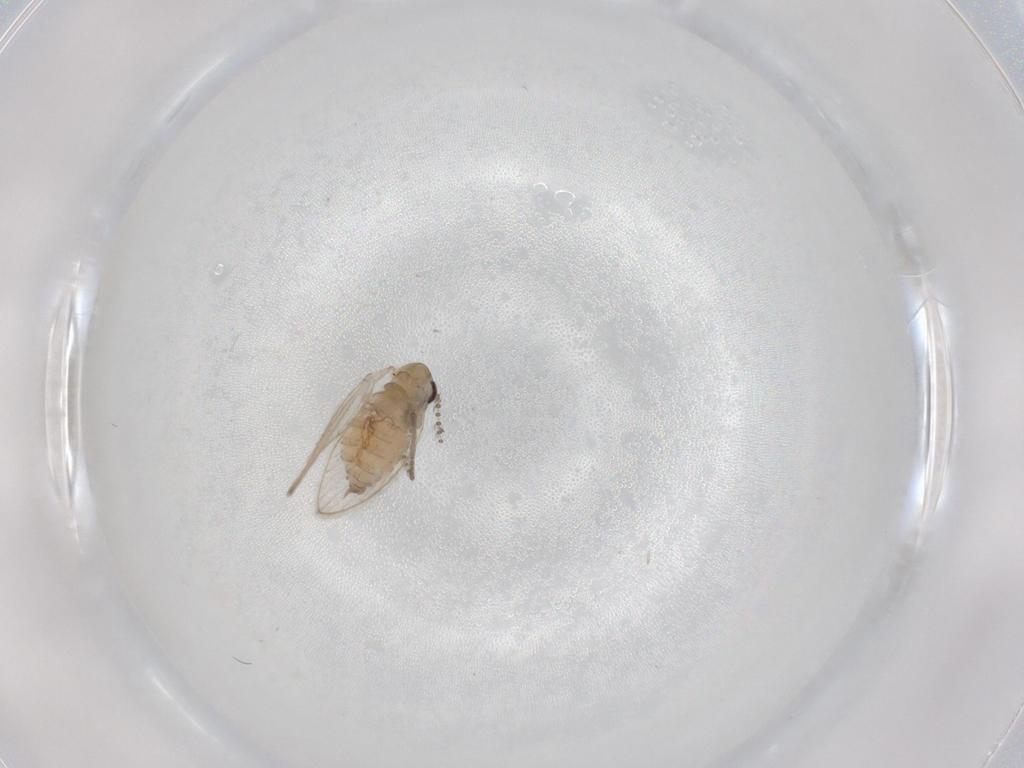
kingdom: Animalia
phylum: Arthropoda
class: Insecta
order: Diptera
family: Psychodidae
